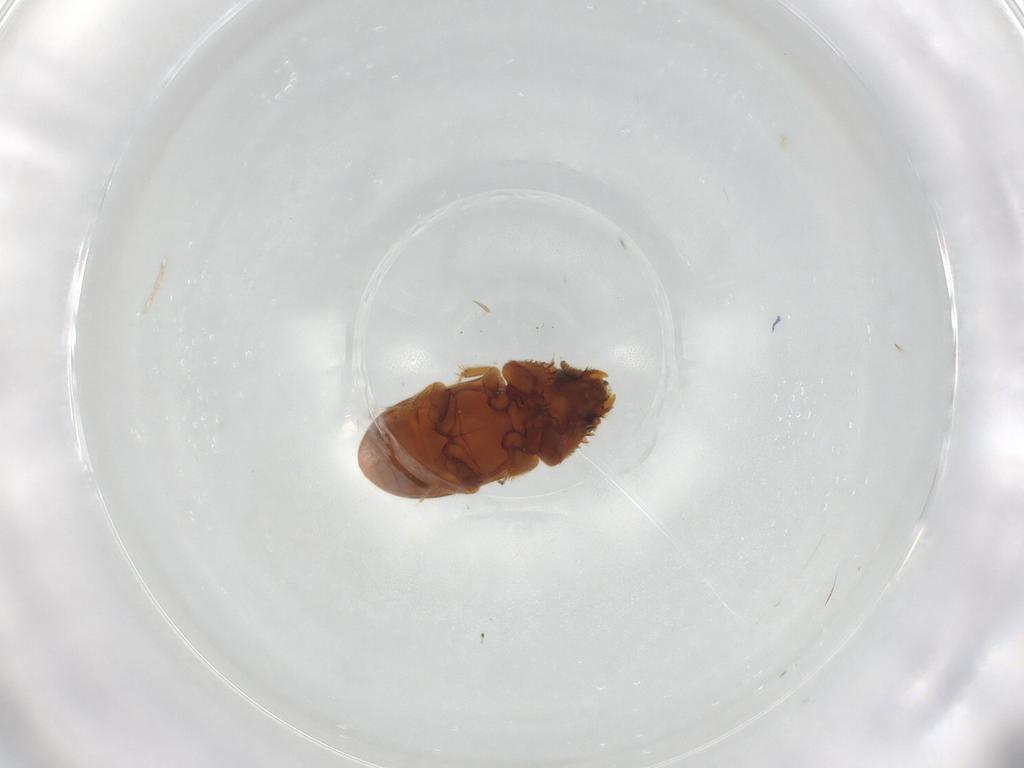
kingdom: Animalia
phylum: Arthropoda
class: Insecta
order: Coleoptera
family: Heteroceridae
